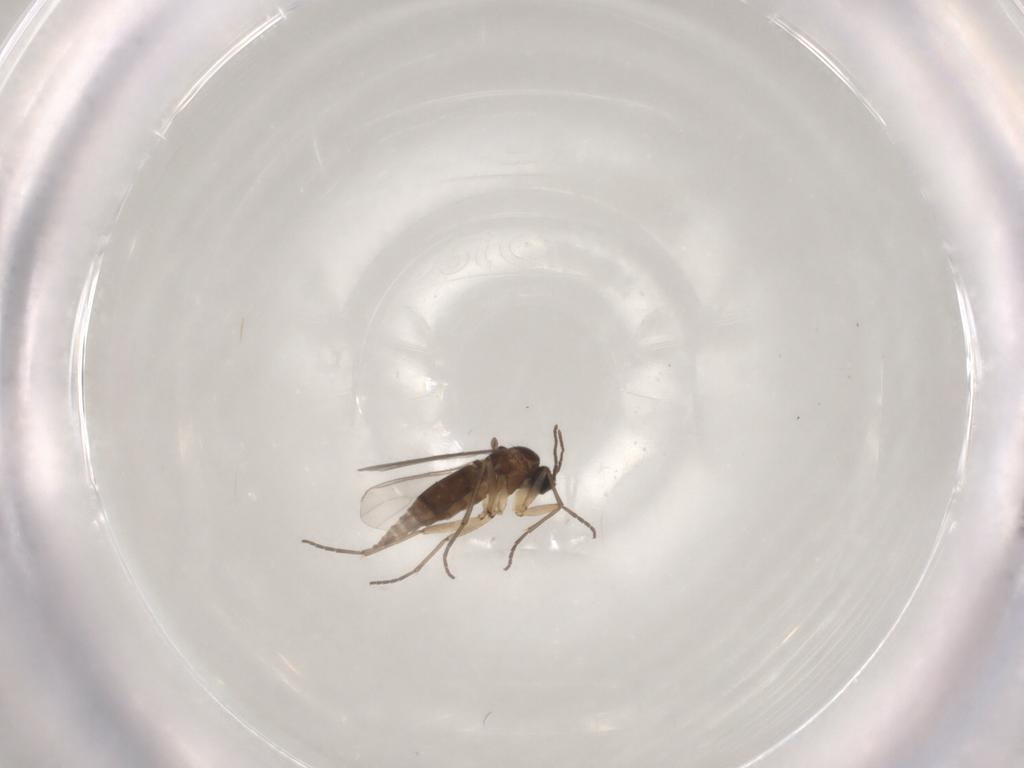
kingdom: Animalia
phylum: Arthropoda
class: Insecta
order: Diptera
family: Sciaridae
